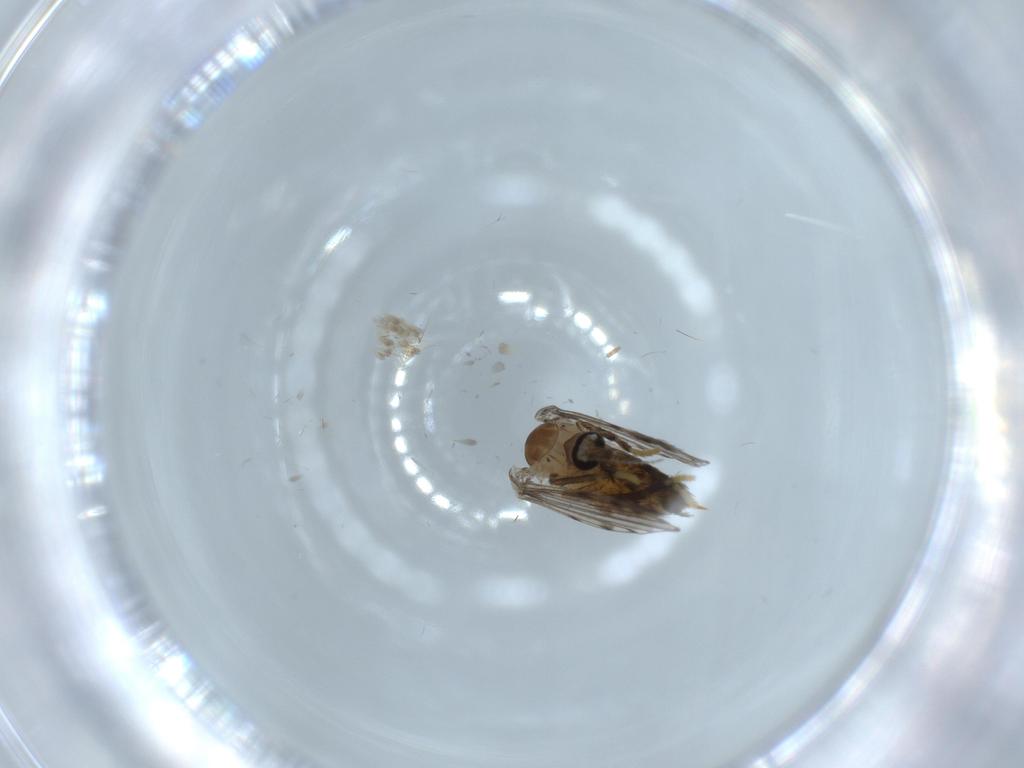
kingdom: Animalia
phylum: Arthropoda
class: Insecta
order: Diptera
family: Psychodidae
